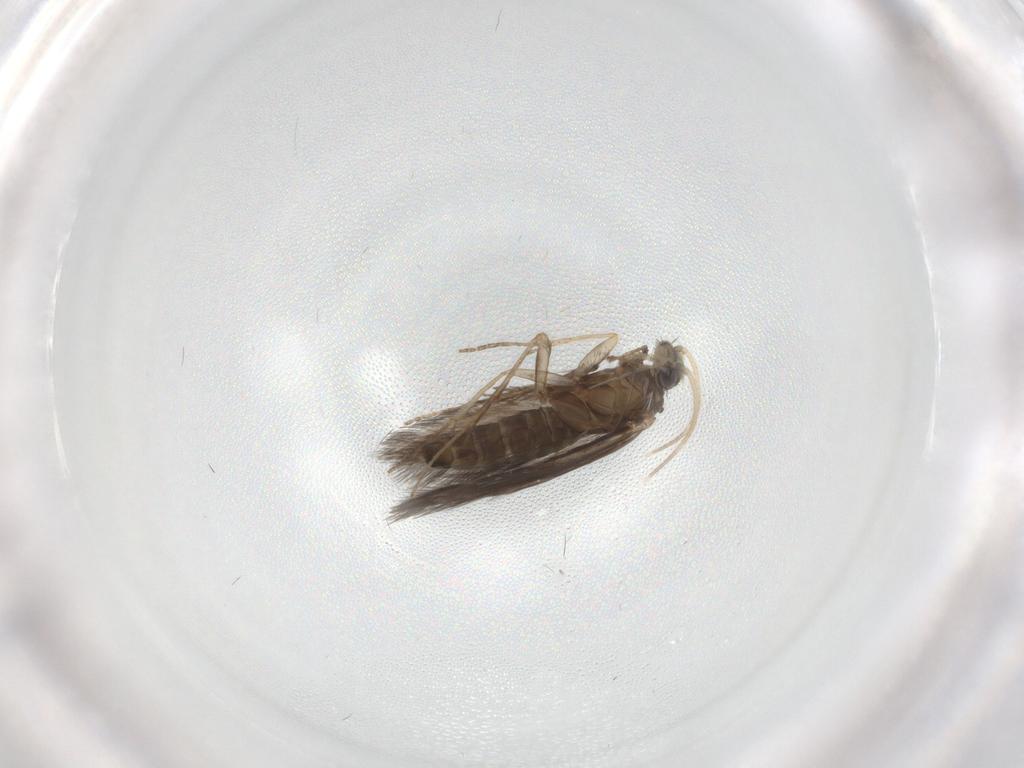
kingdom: Animalia
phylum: Arthropoda
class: Insecta
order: Trichoptera
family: Hydroptilidae
